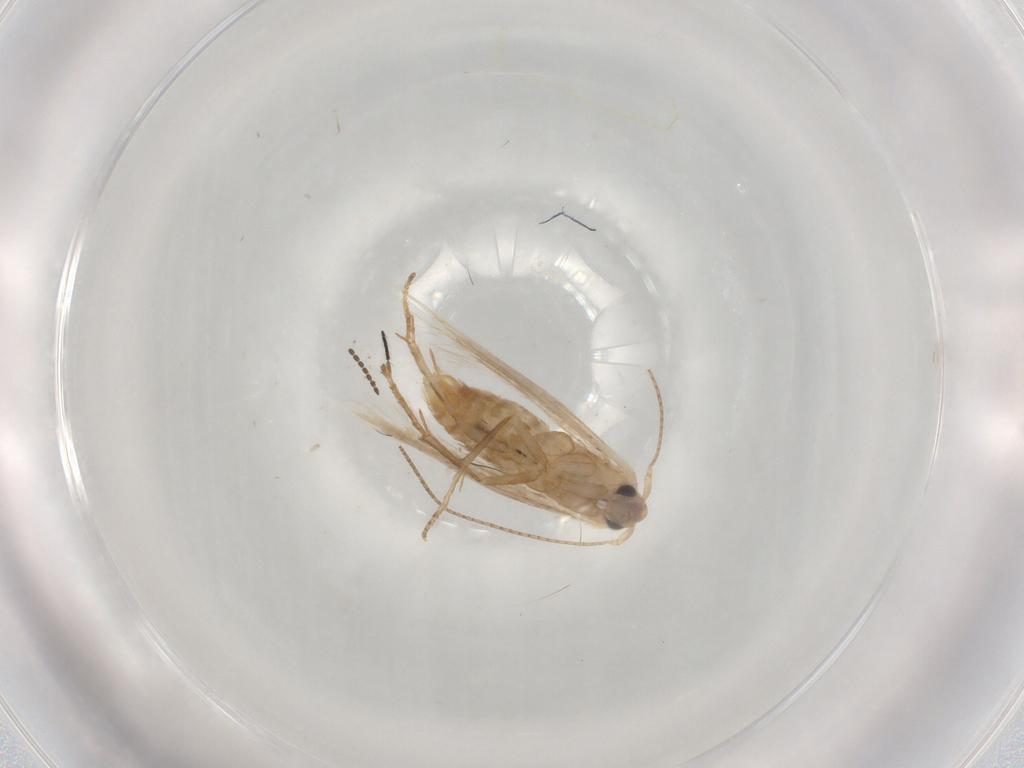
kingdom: Animalia
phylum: Arthropoda
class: Insecta
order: Lepidoptera
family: Bucculatricidae
